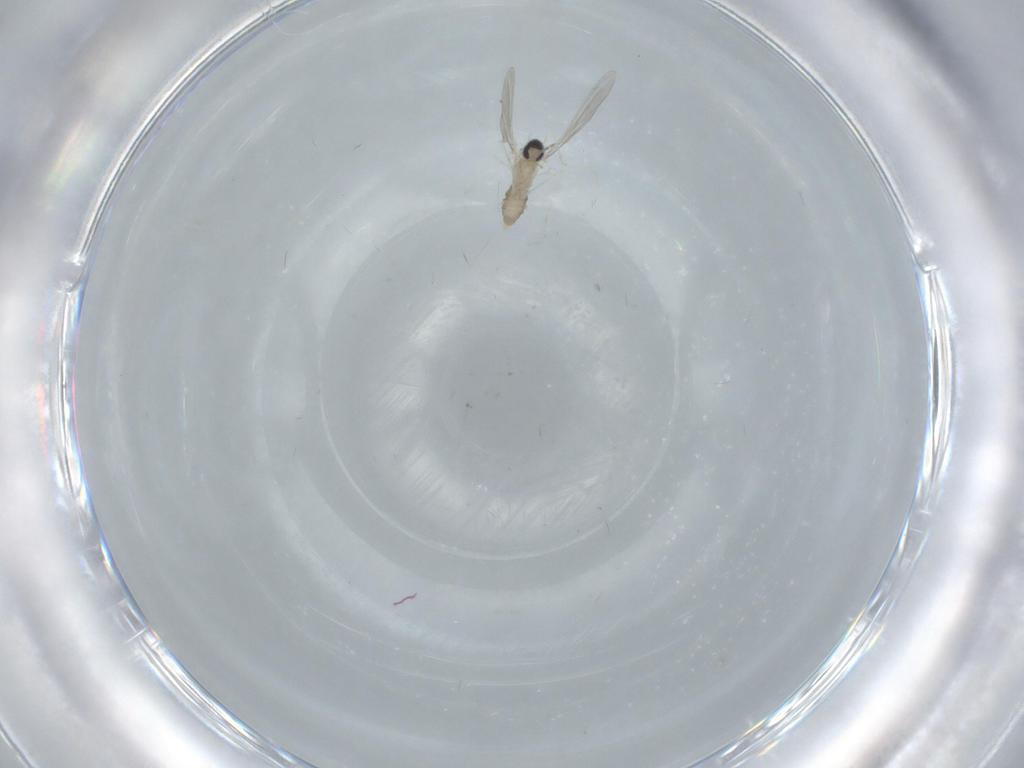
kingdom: Animalia
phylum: Arthropoda
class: Insecta
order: Diptera
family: Cecidomyiidae
